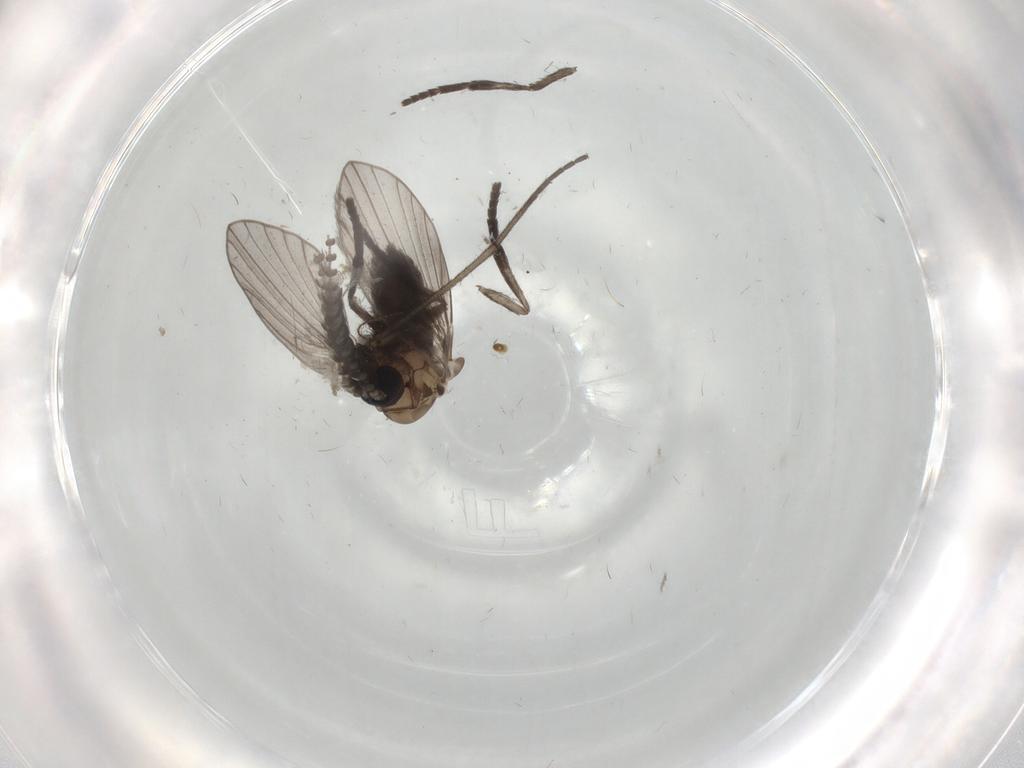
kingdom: Animalia
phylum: Arthropoda
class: Insecta
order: Diptera
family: Psychodidae
